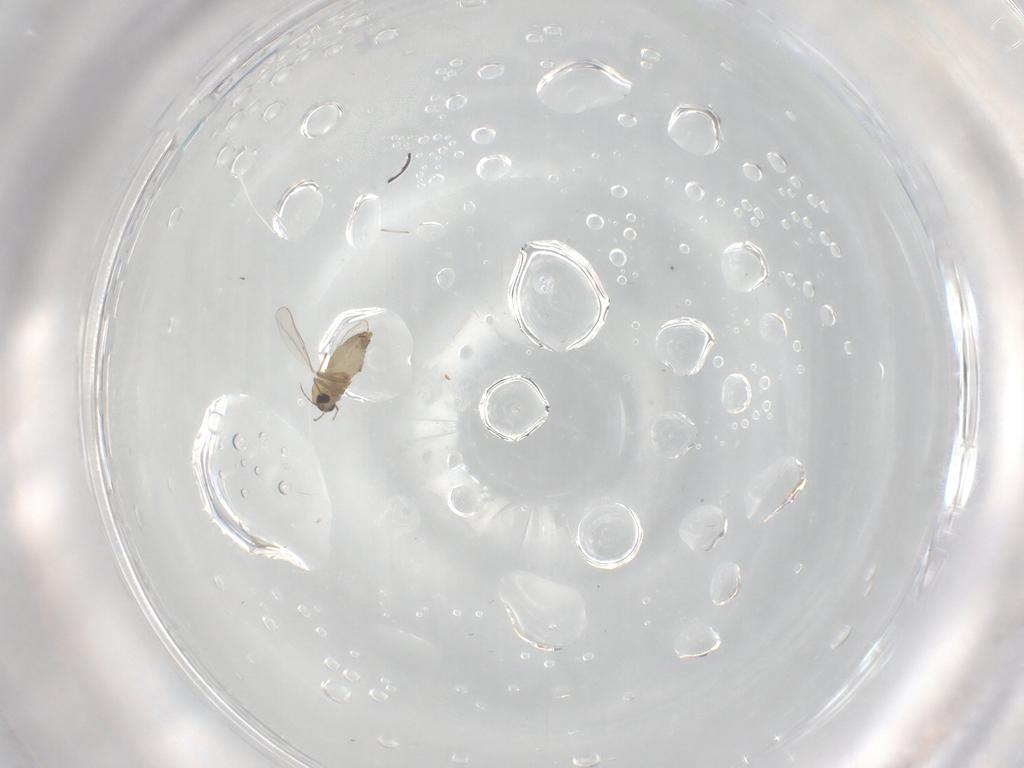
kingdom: Animalia
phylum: Arthropoda
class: Insecta
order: Diptera
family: Chironomidae
